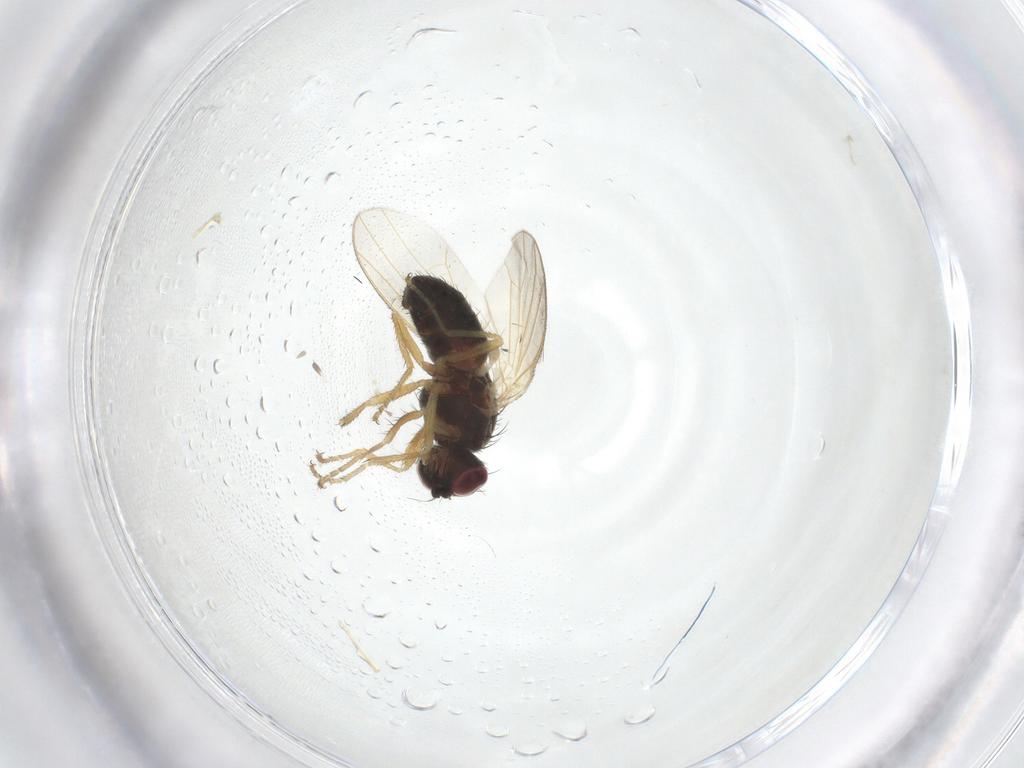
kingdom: Animalia
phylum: Arthropoda
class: Insecta
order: Diptera
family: Heleomyzidae
